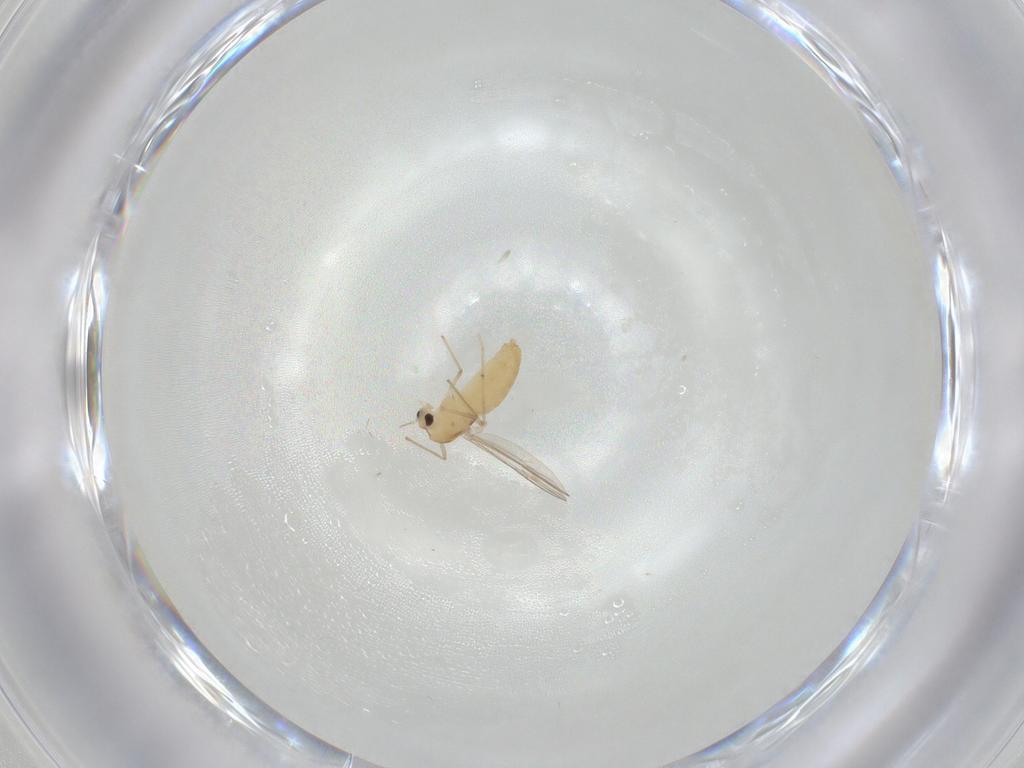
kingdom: Animalia
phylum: Arthropoda
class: Insecta
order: Diptera
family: Chironomidae
